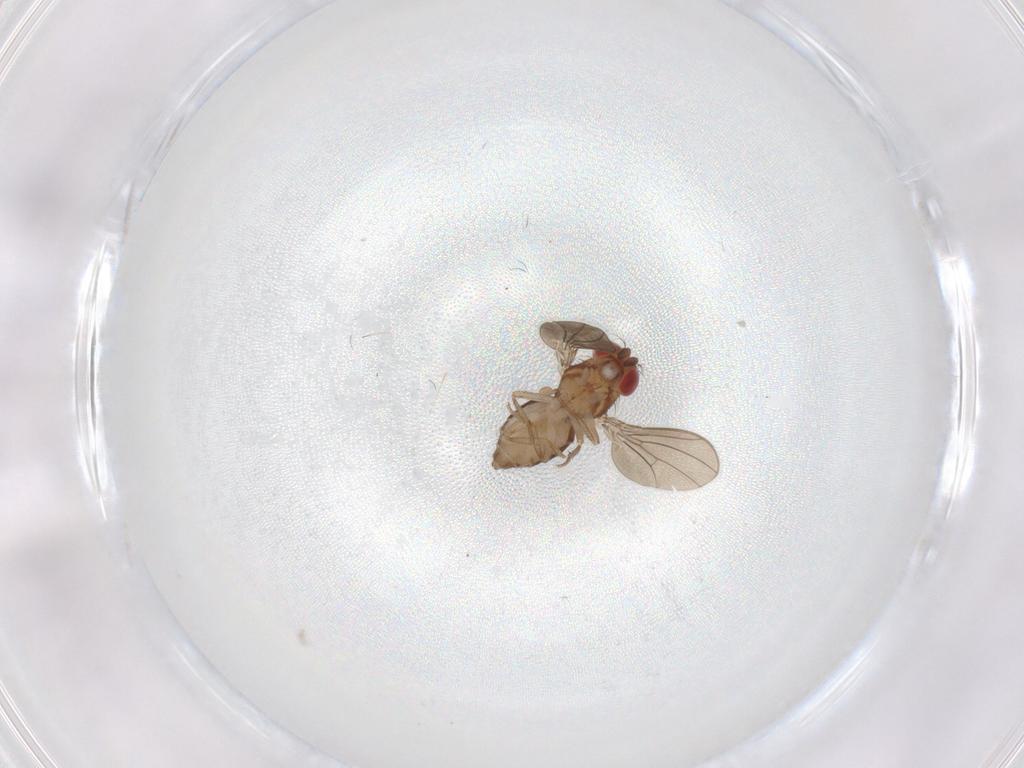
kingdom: Animalia
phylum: Arthropoda
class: Insecta
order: Diptera
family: Drosophilidae
